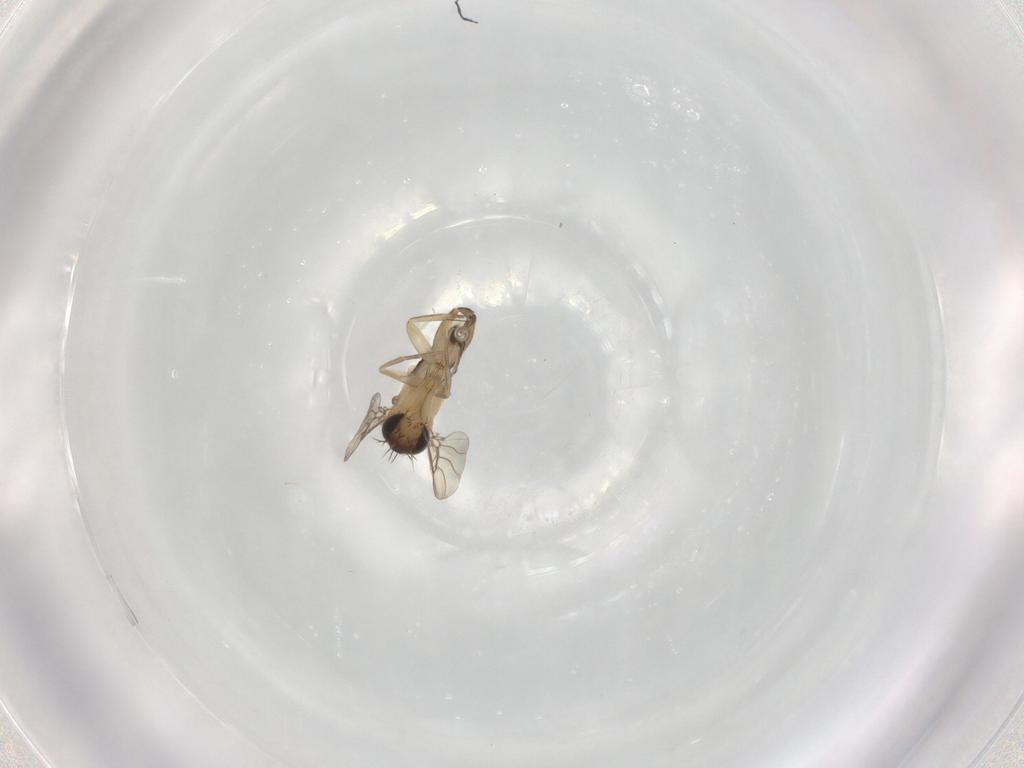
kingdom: Animalia
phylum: Arthropoda
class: Insecta
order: Diptera
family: Phoridae
